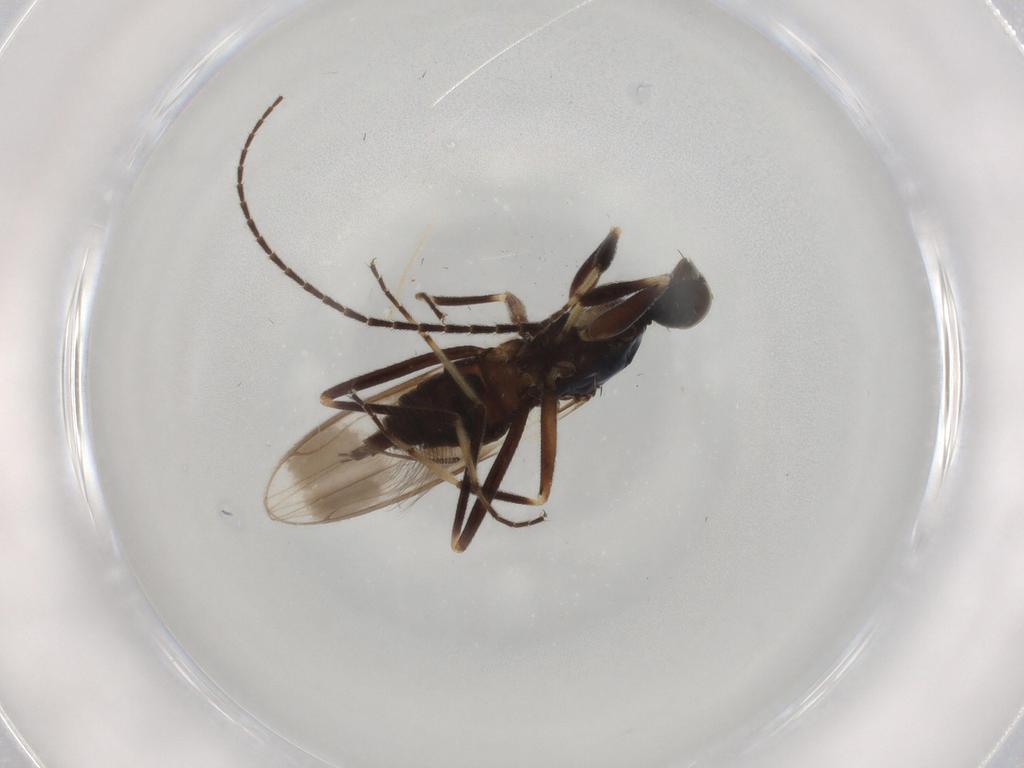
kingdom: Animalia
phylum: Arthropoda
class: Insecta
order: Diptera
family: Hybotidae
